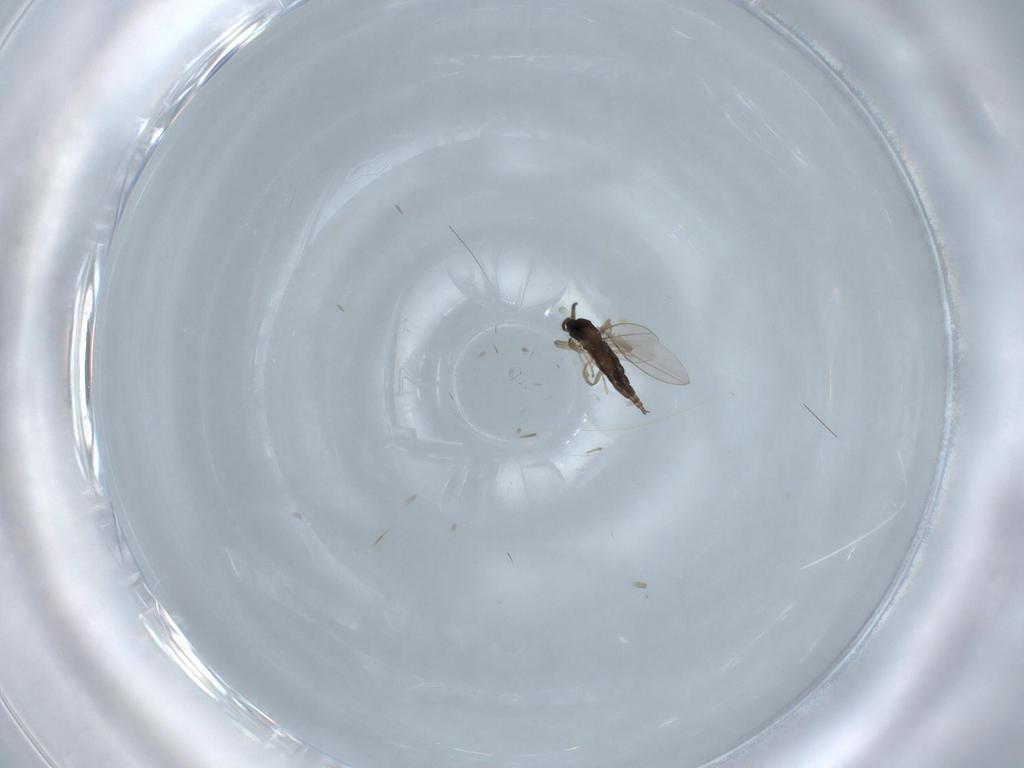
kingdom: Animalia
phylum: Arthropoda
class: Insecta
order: Diptera
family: Cecidomyiidae
